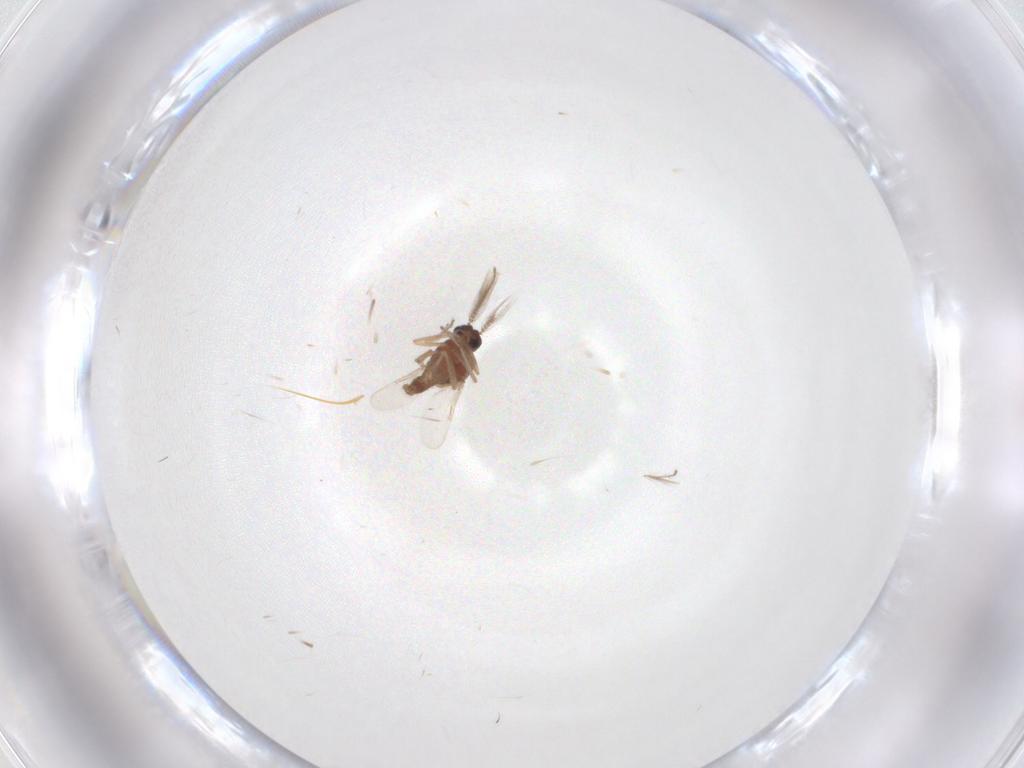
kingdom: Animalia
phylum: Arthropoda
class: Insecta
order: Diptera
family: Ceratopogonidae
